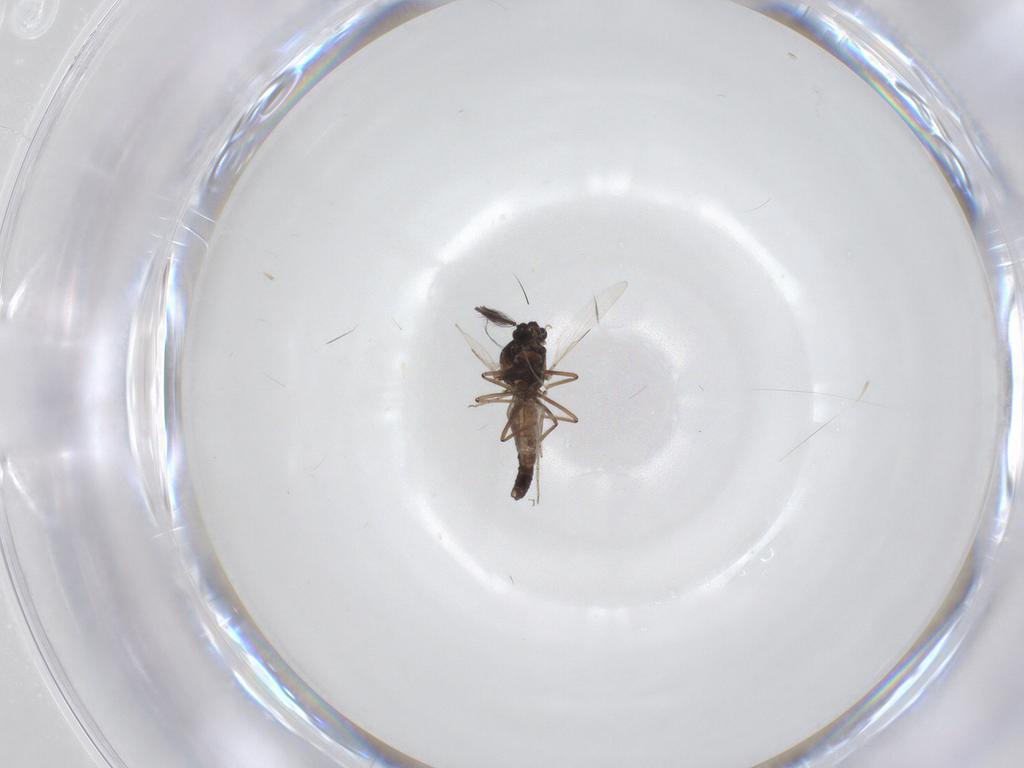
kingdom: Animalia
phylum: Arthropoda
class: Insecta
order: Diptera
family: Ceratopogonidae
